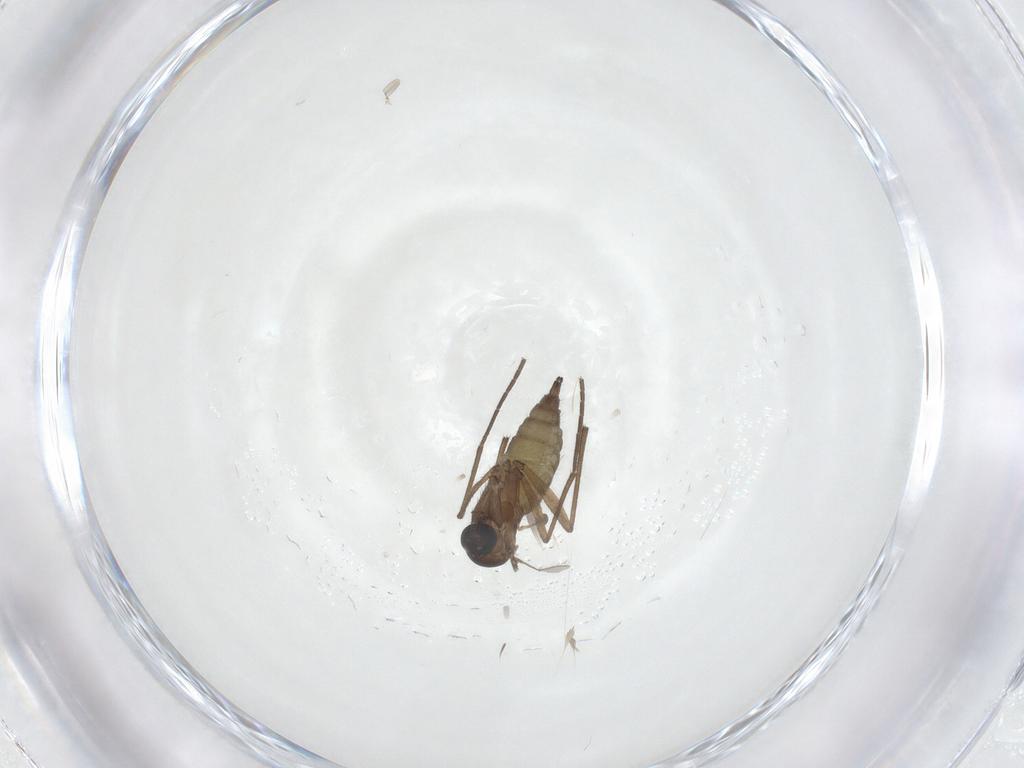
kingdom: Animalia
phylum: Arthropoda
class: Insecta
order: Diptera
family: Sciaridae
